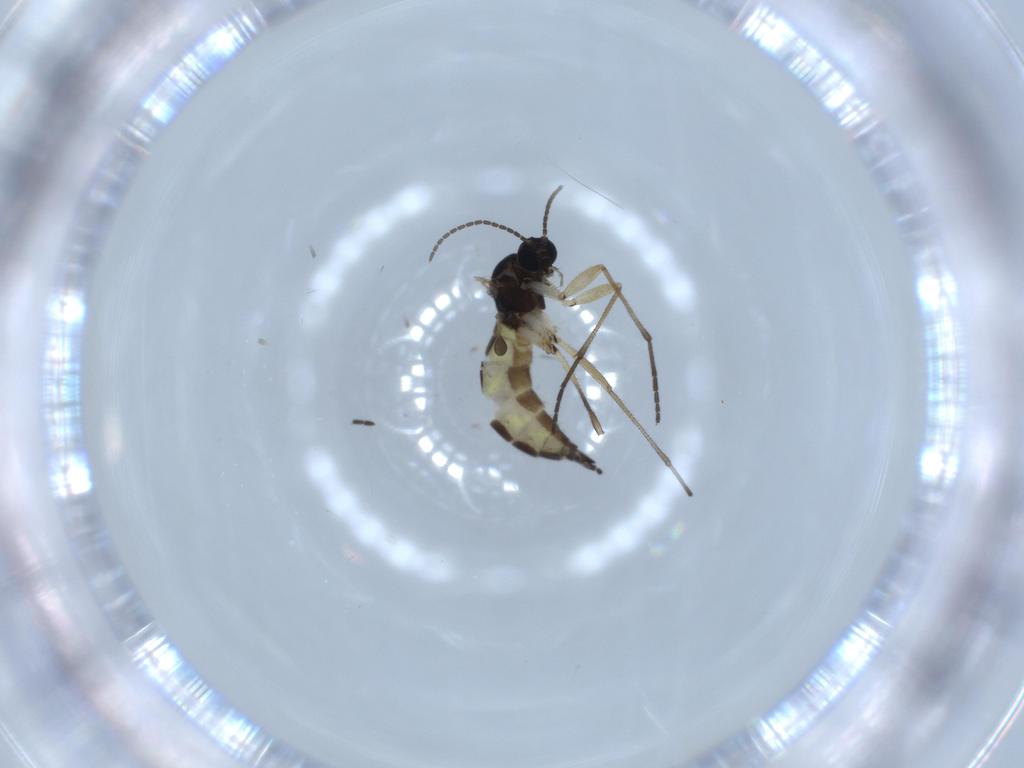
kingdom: Animalia
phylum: Arthropoda
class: Insecta
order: Diptera
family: Sciaridae
